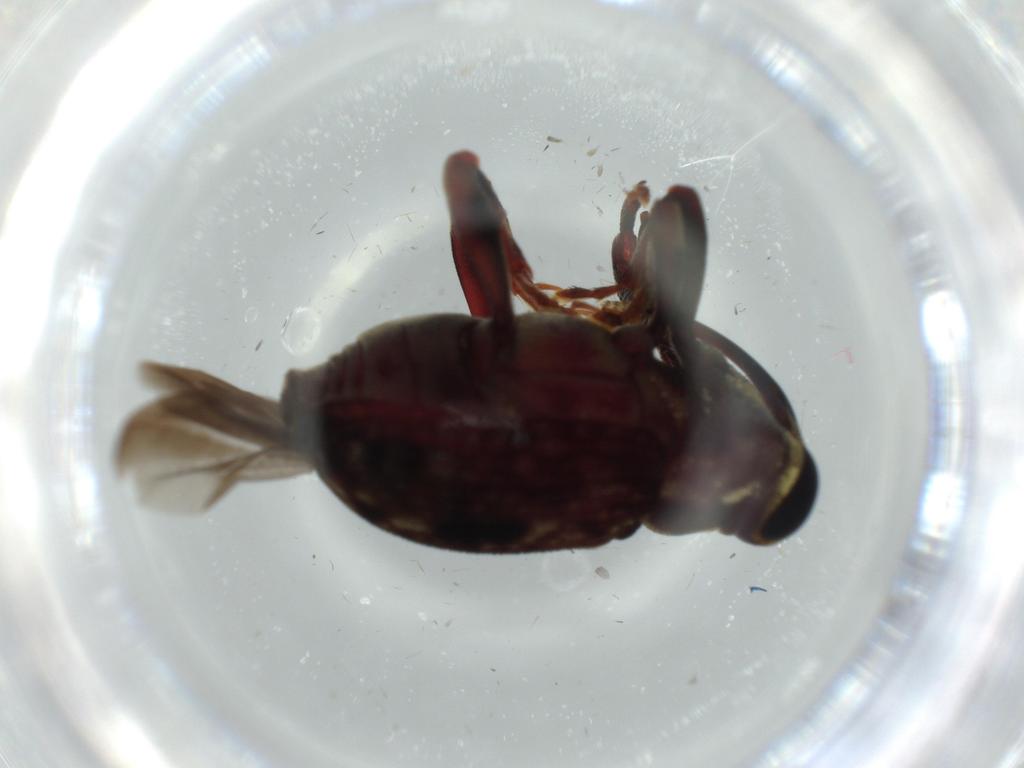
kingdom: Animalia
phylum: Arthropoda
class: Insecta
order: Coleoptera
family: Curculionidae
